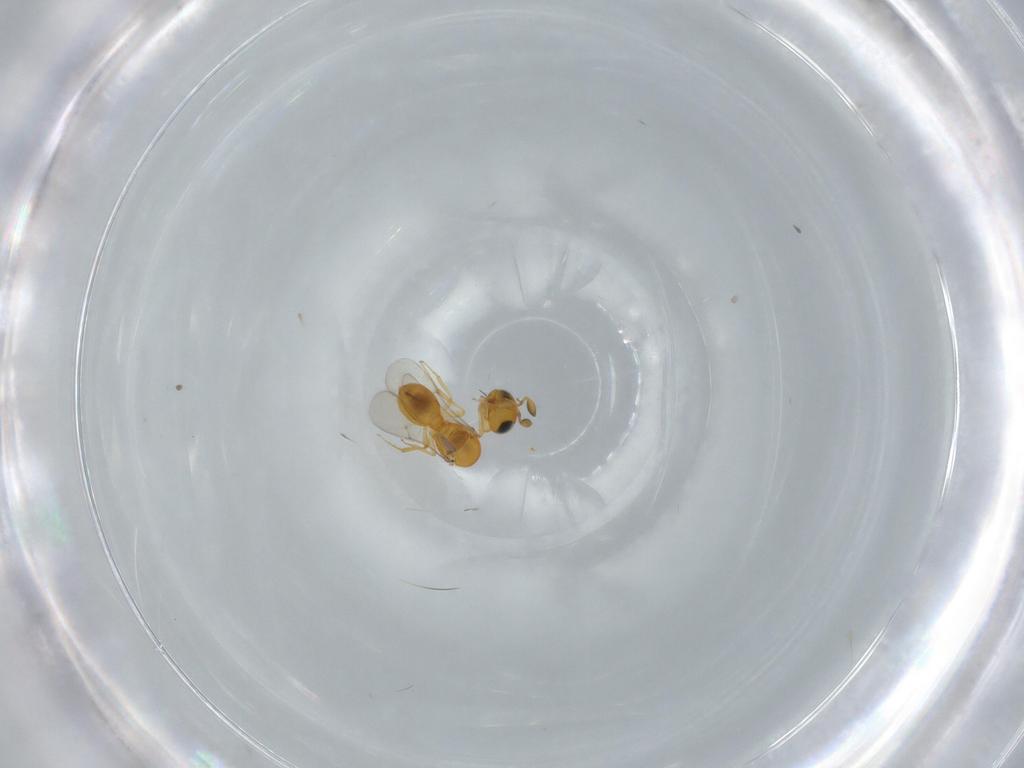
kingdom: Animalia
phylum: Arthropoda
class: Insecta
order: Hymenoptera
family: Scelionidae
